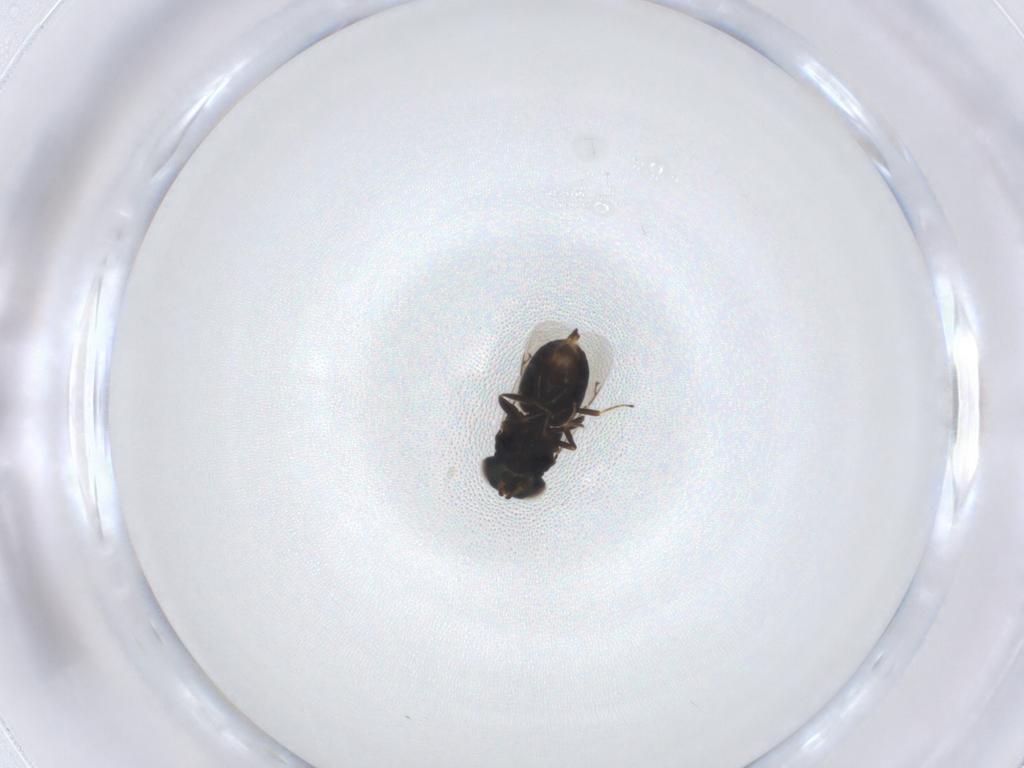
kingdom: Animalia
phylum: Arthropoda
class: Insecta
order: Hymenoptera
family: Eunotidae
